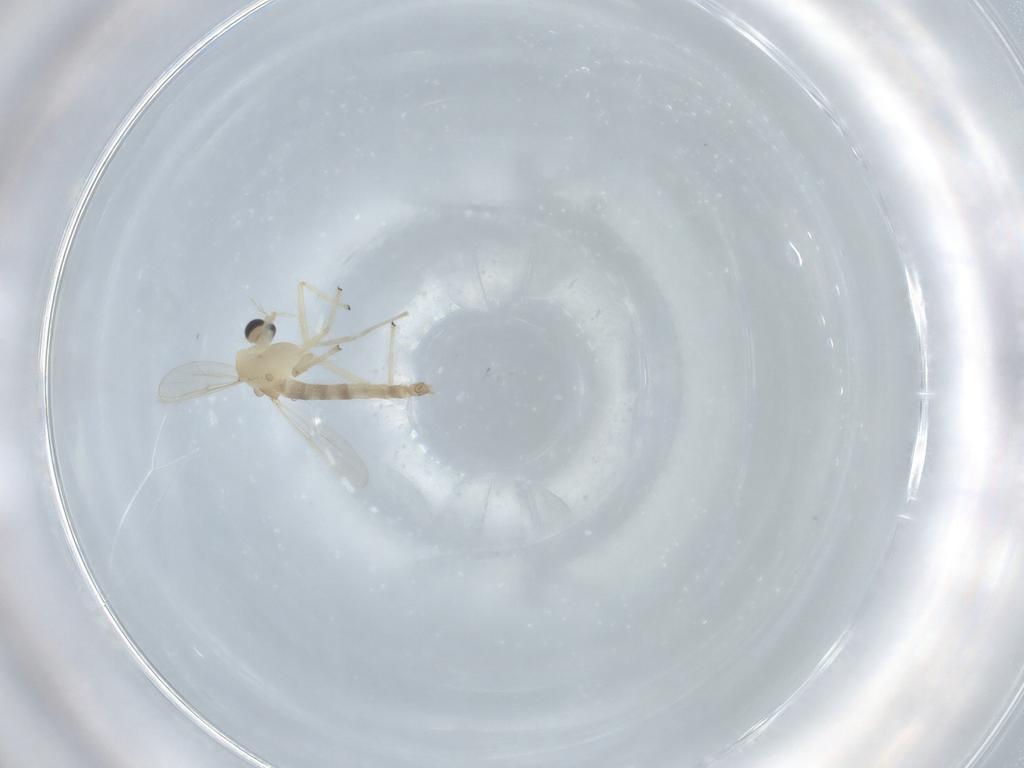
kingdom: Animalia
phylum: Arthropoda
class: Insecta
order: Diptera
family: Chironomidae
